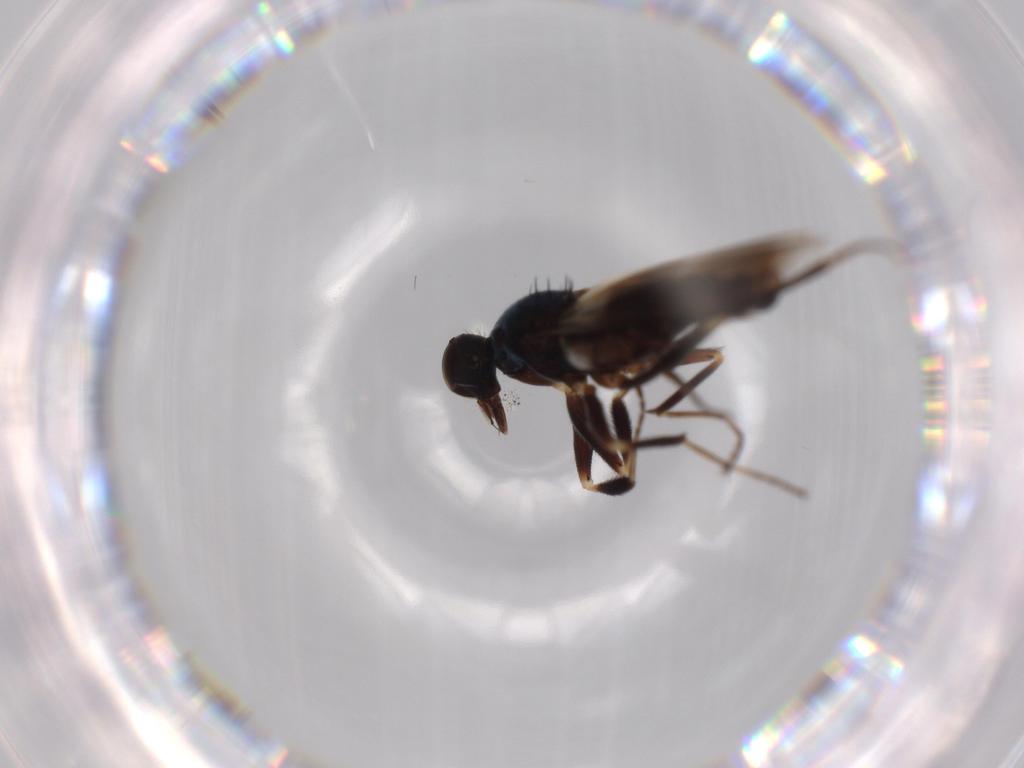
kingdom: Animalia
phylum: Arthropoda
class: Insecta
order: Diptera
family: Hybotidae
